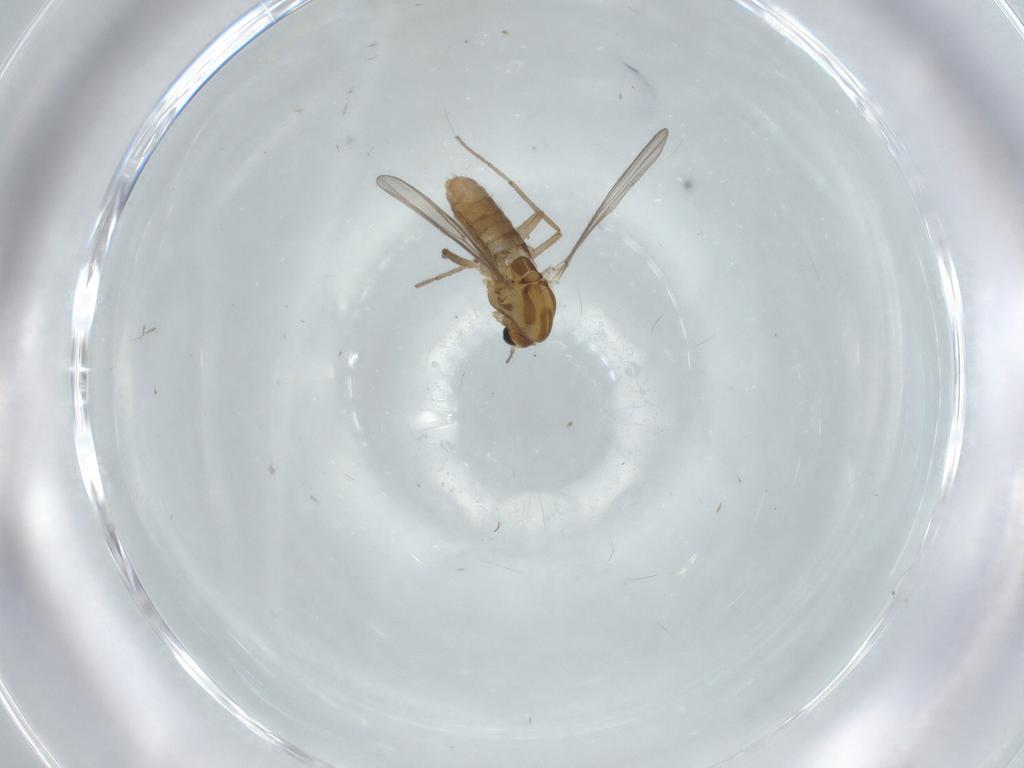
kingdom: Animalia
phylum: Arthropoda
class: Insecta
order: Diptera
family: Chironomidae
